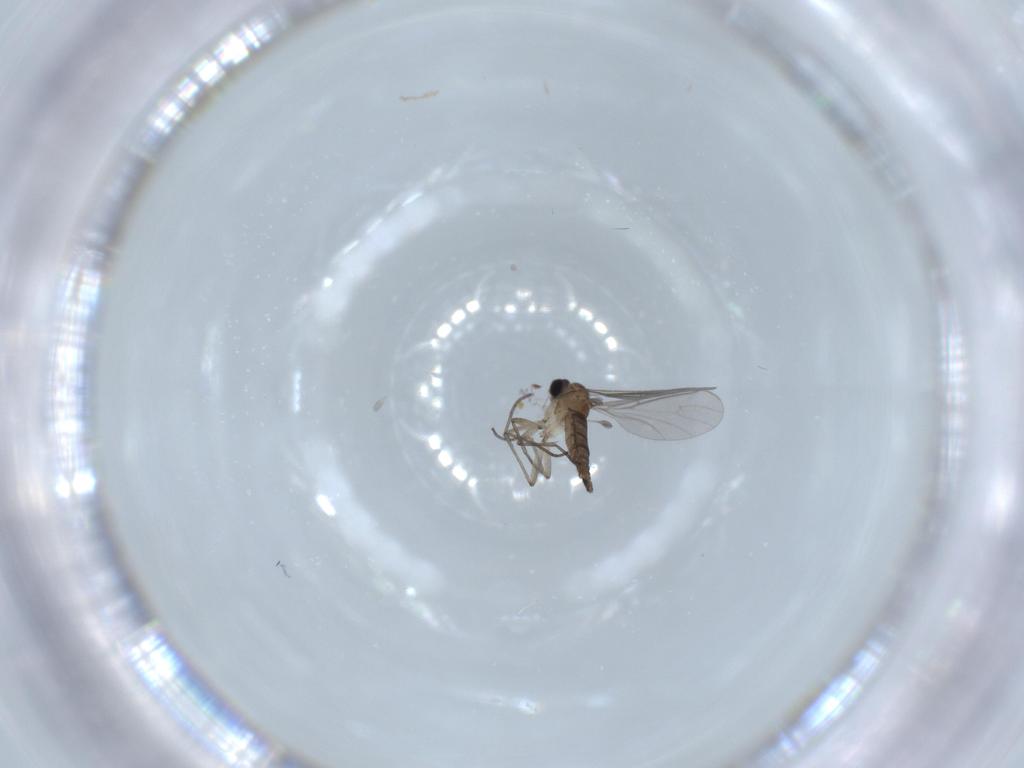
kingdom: Animalia
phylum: Arthropoda
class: Insecta
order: Diptera
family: Sciaridae
